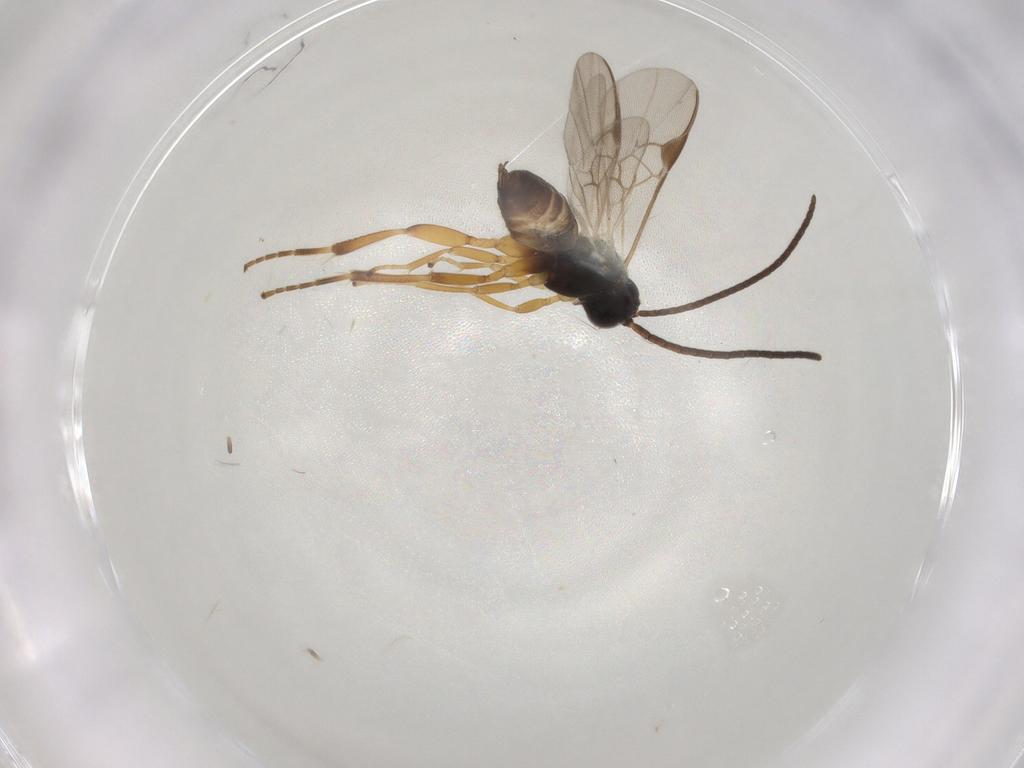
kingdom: Animalia
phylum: Arthropoda
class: Insecta
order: Hymenoptera
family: Braconidae
